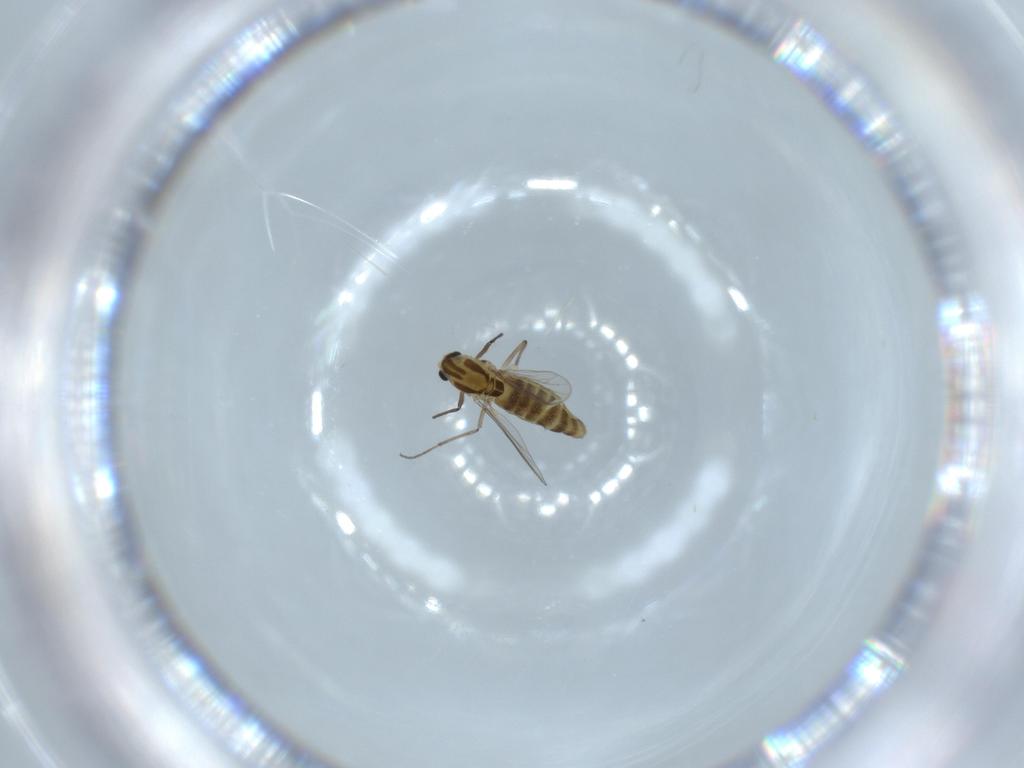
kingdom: Animalia
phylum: Arthropoda
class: Insecta
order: Diptera
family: Chironomidae
